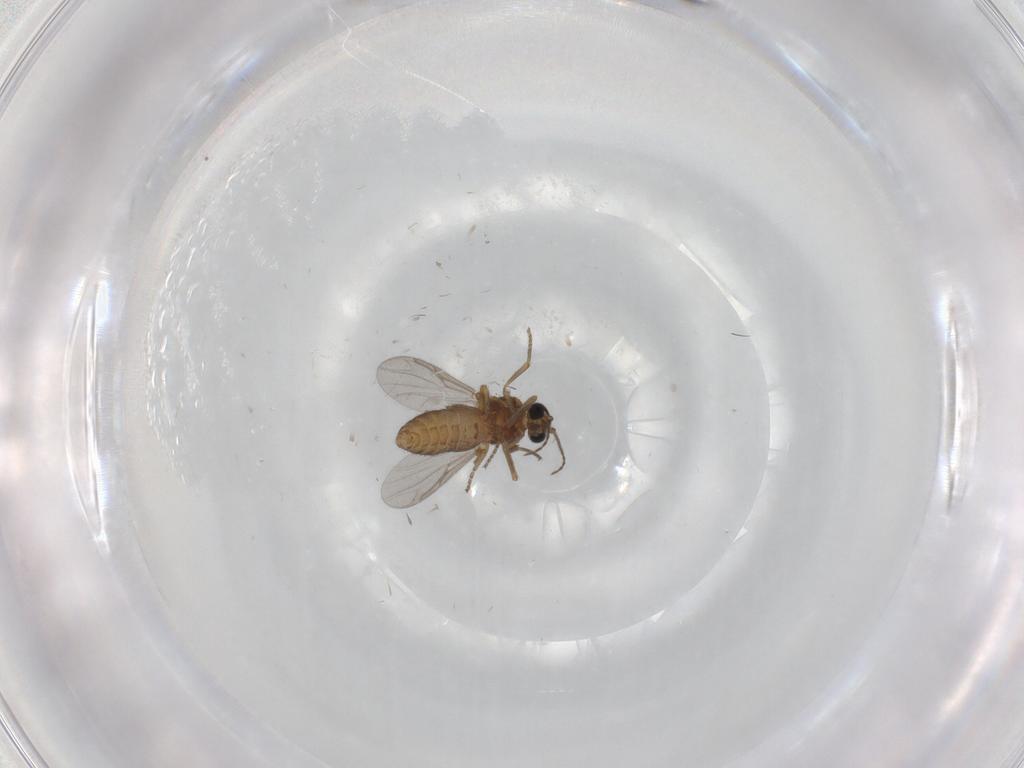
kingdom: Animalia
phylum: Arthropoda
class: Insecta
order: Diptera
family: Ceratopogonidae
